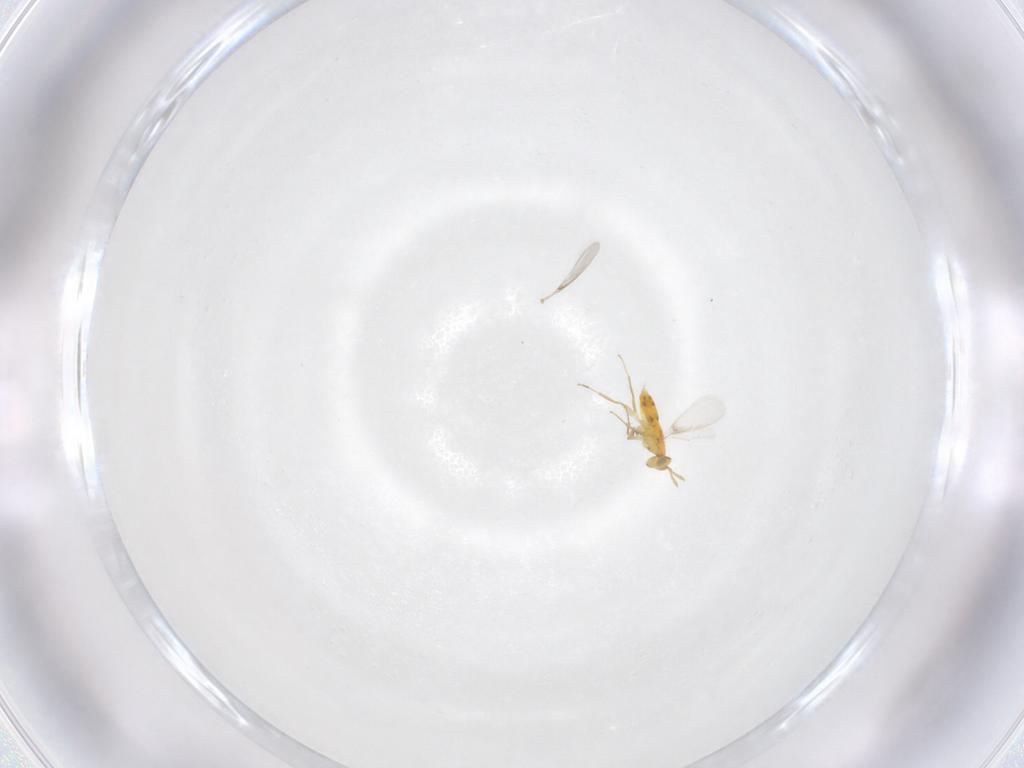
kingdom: Animalia
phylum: Arthropoda
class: Insecta
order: Hymenoptera
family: Aphelinidae
